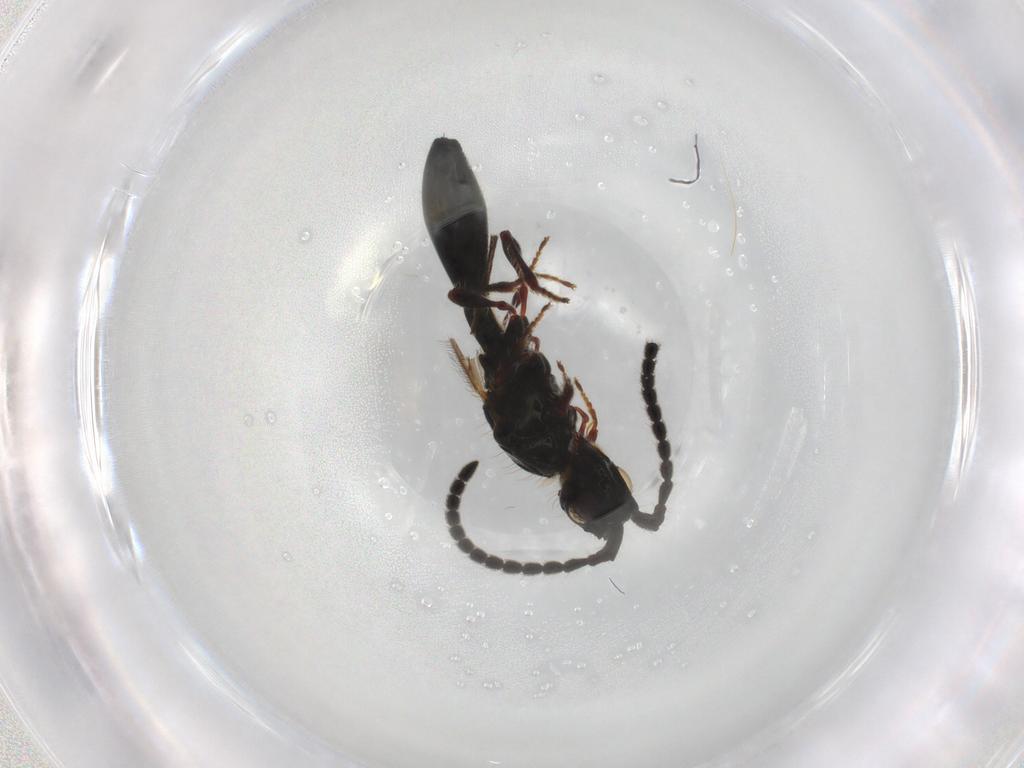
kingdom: Animalia
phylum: Arthropoda
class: Insecta
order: Hymenoptera
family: Diapriidae
